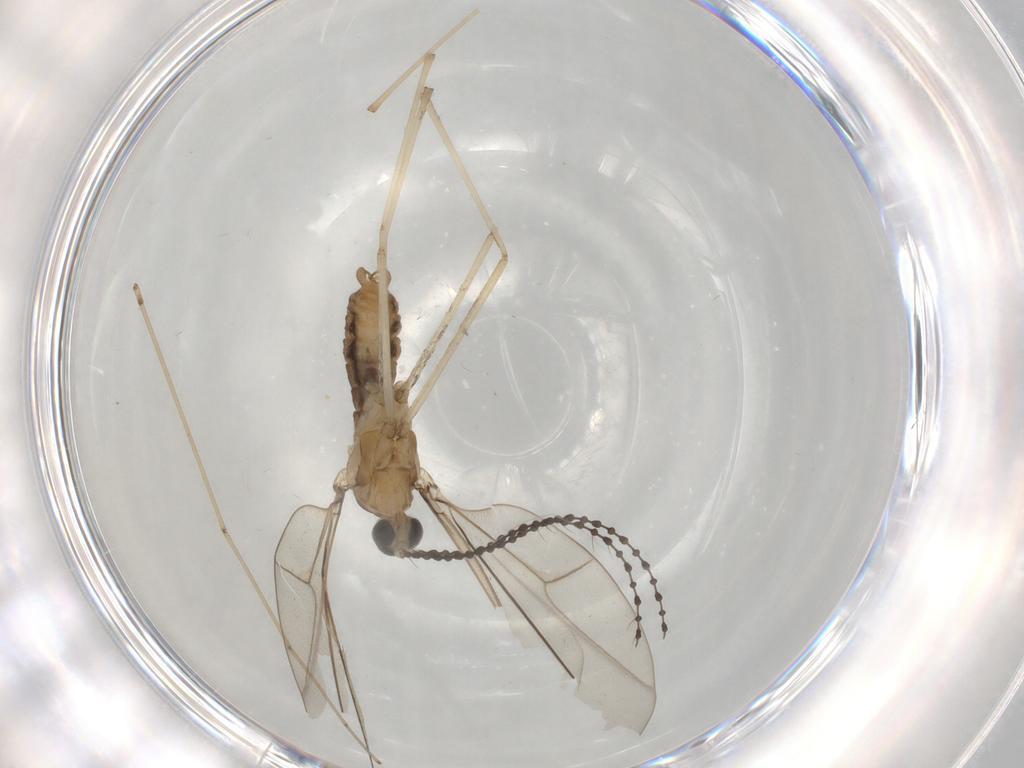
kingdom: Animalia
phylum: Arthropoda
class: Insecta
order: Diptera
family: Cecidomyiidae
